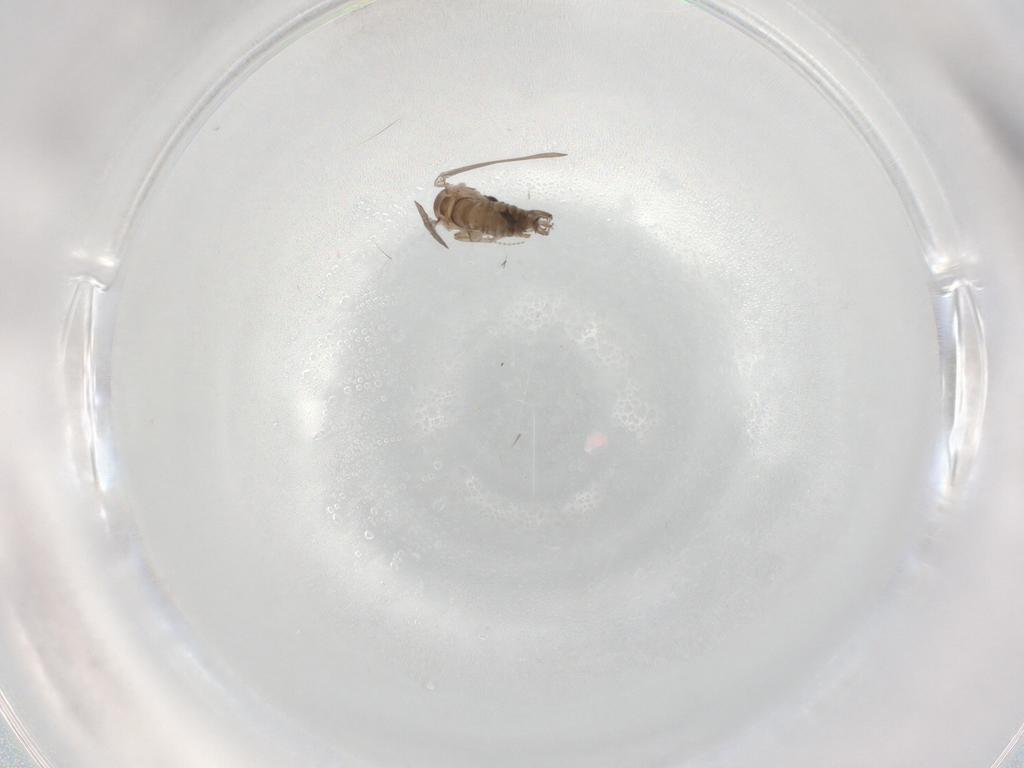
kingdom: Animalia
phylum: Arthropoda
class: Insecta
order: Diptera
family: Psychodidae
